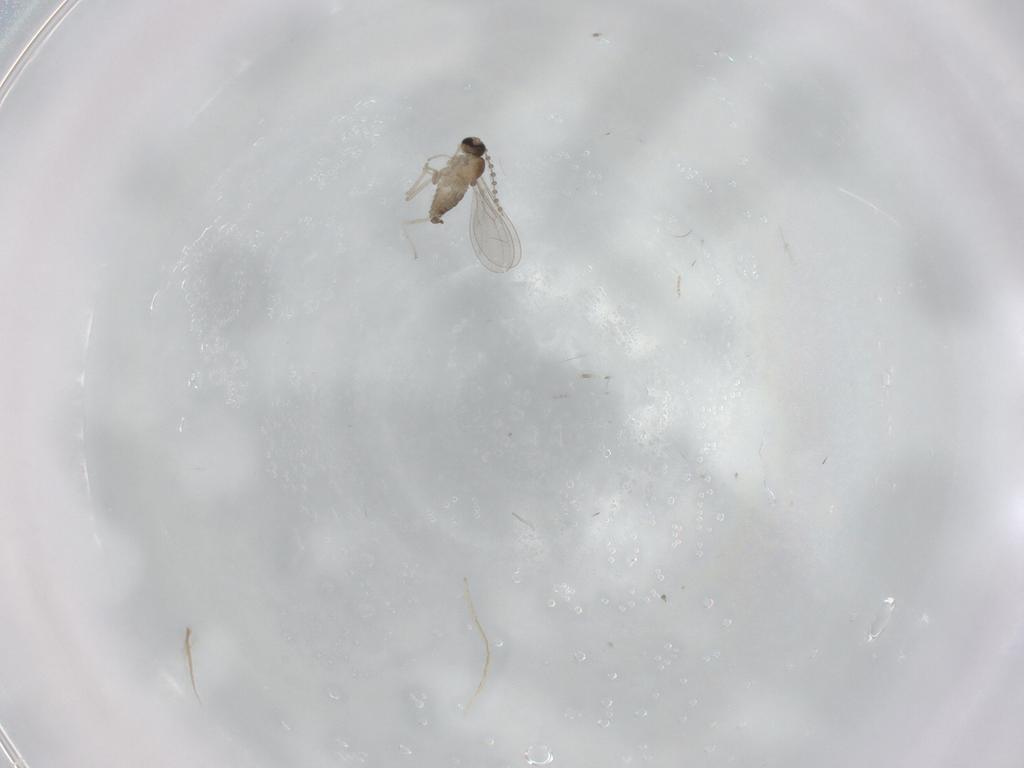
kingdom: Animalia
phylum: Arthropoda
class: Insecta
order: Diptera
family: Cecidomyiidae
